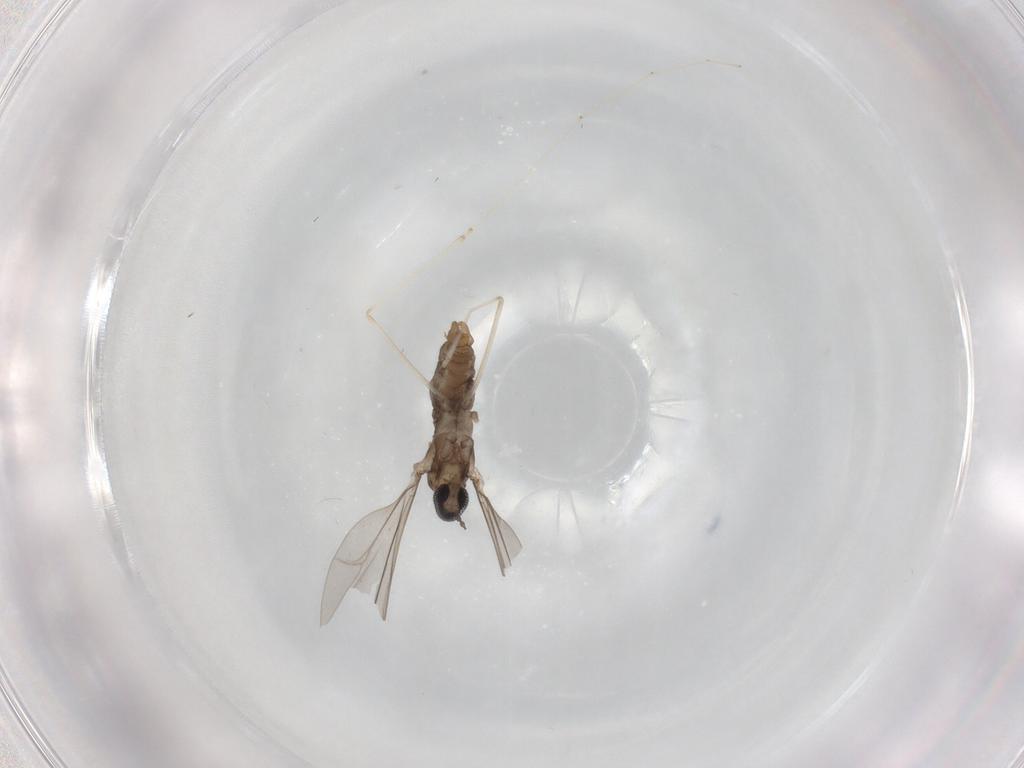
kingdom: Animalia
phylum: Arthropoda
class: Insecta
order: Diptera
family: Cecidomyiidae
